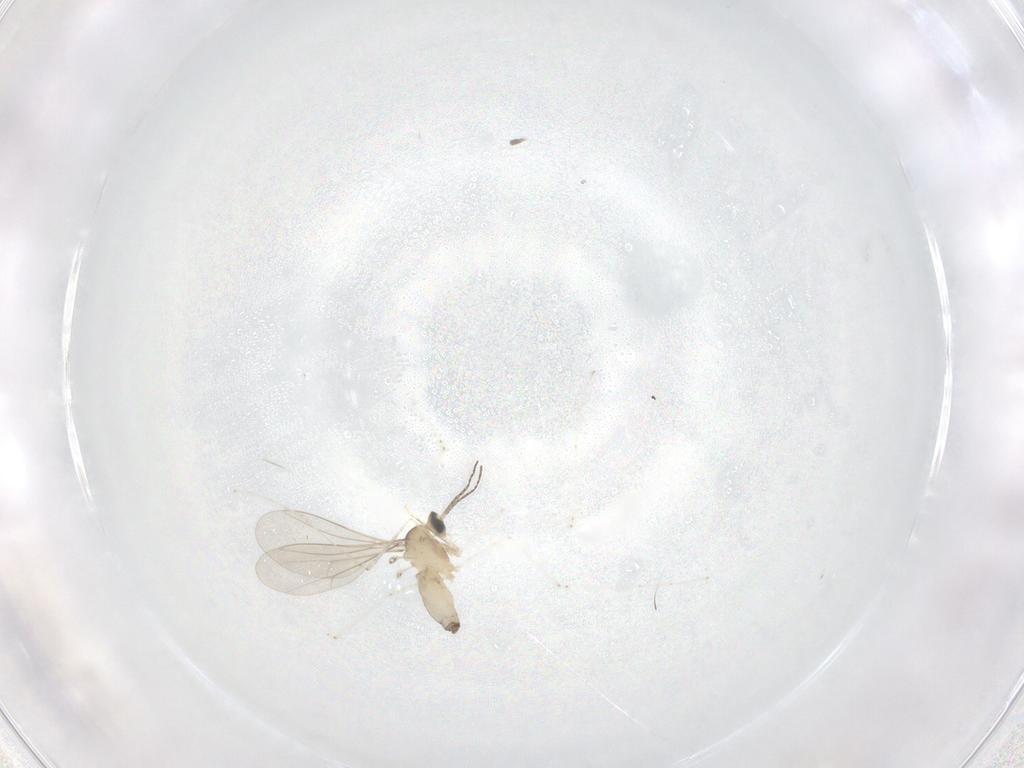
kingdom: Animalia
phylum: Arthropoda
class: Insecta
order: Diptera
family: Cecidomyiidae
